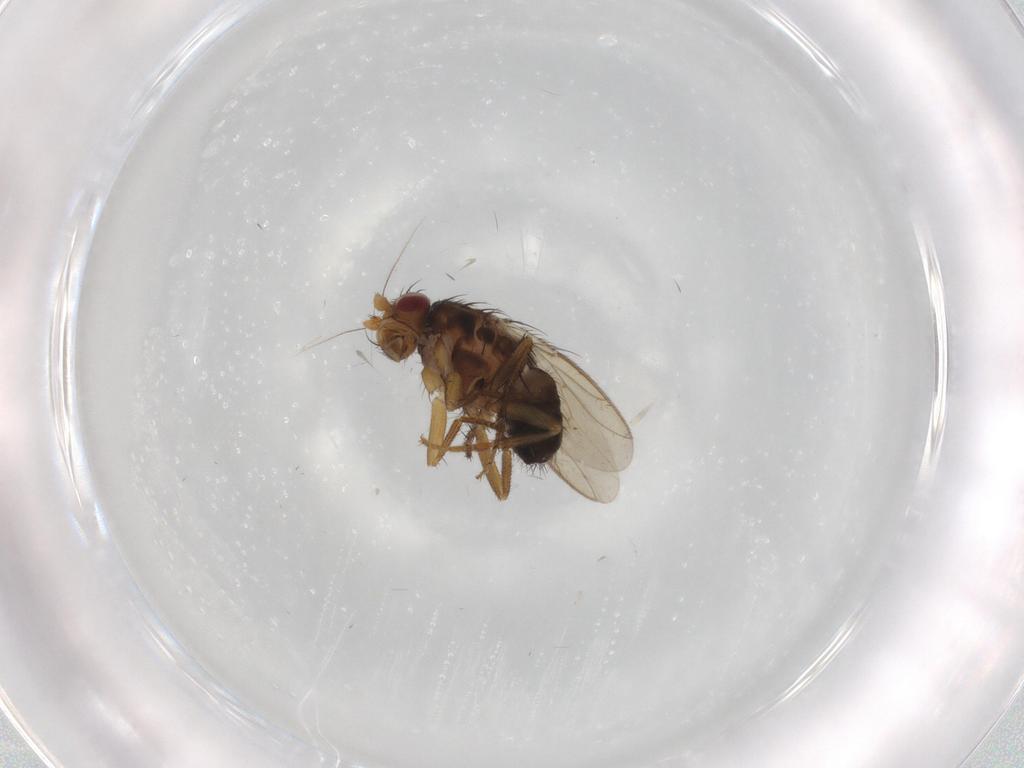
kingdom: Animalia
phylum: Arthropoda
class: Insecta
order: Diptera
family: Sphaeroceridae
